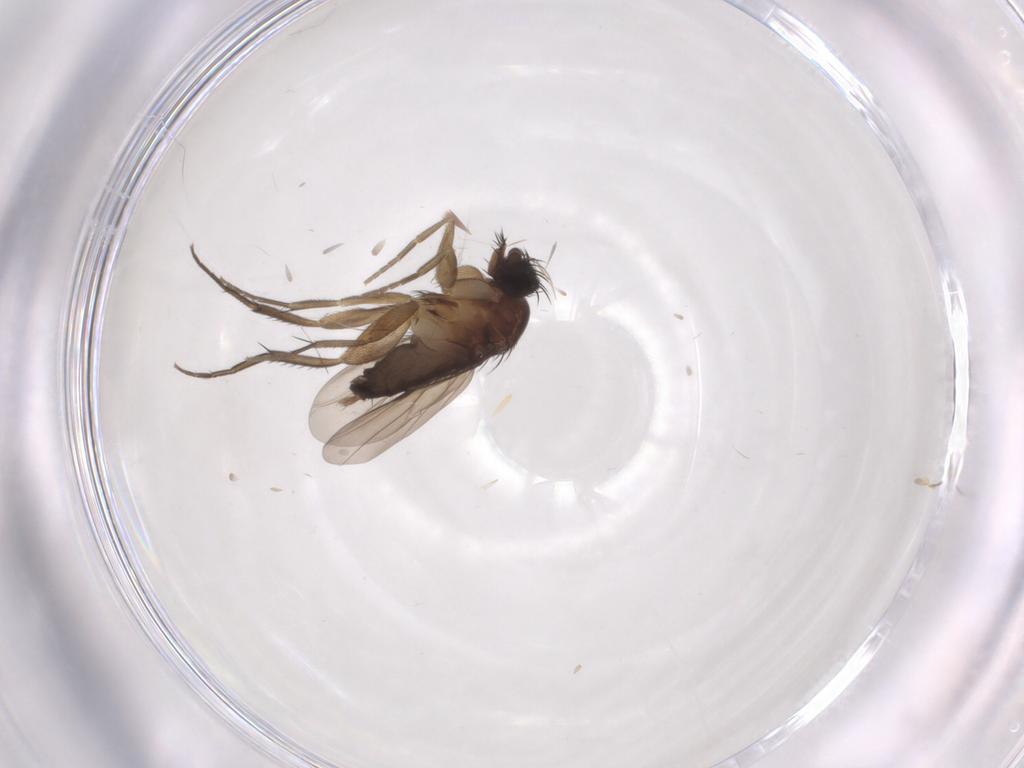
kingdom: Animalia
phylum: Arthropoda
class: Insecta
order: Diptera
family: Phoridae
